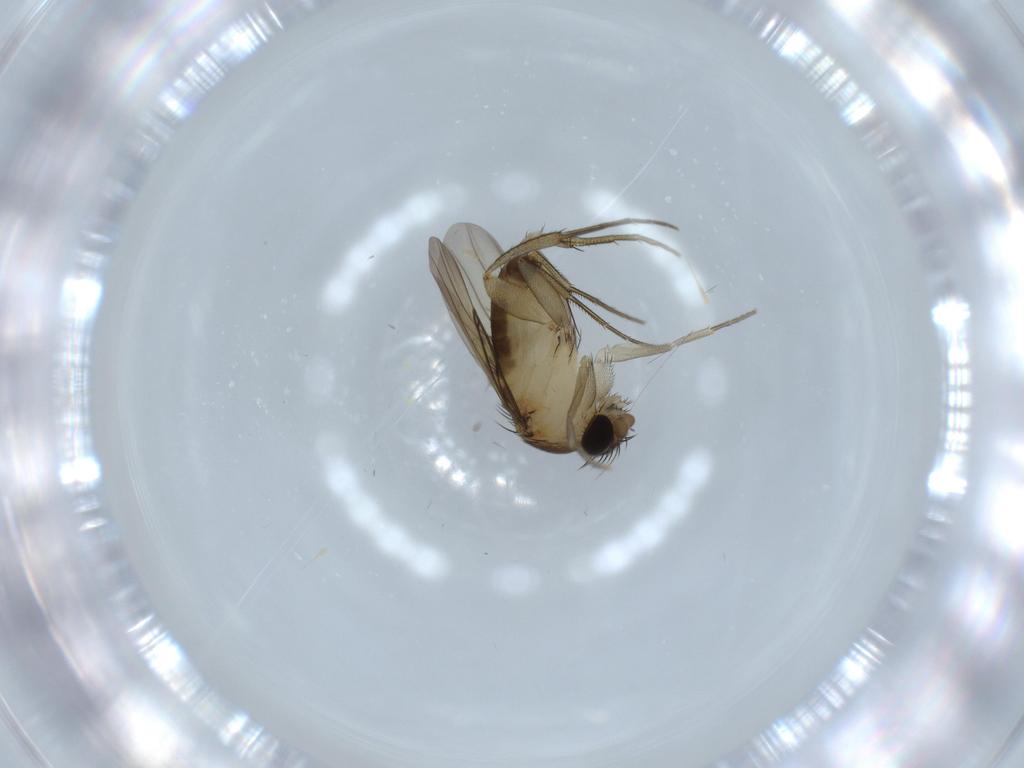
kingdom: Animalia
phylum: Arthropoda
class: Insecta
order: Diptera
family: Phoridae
